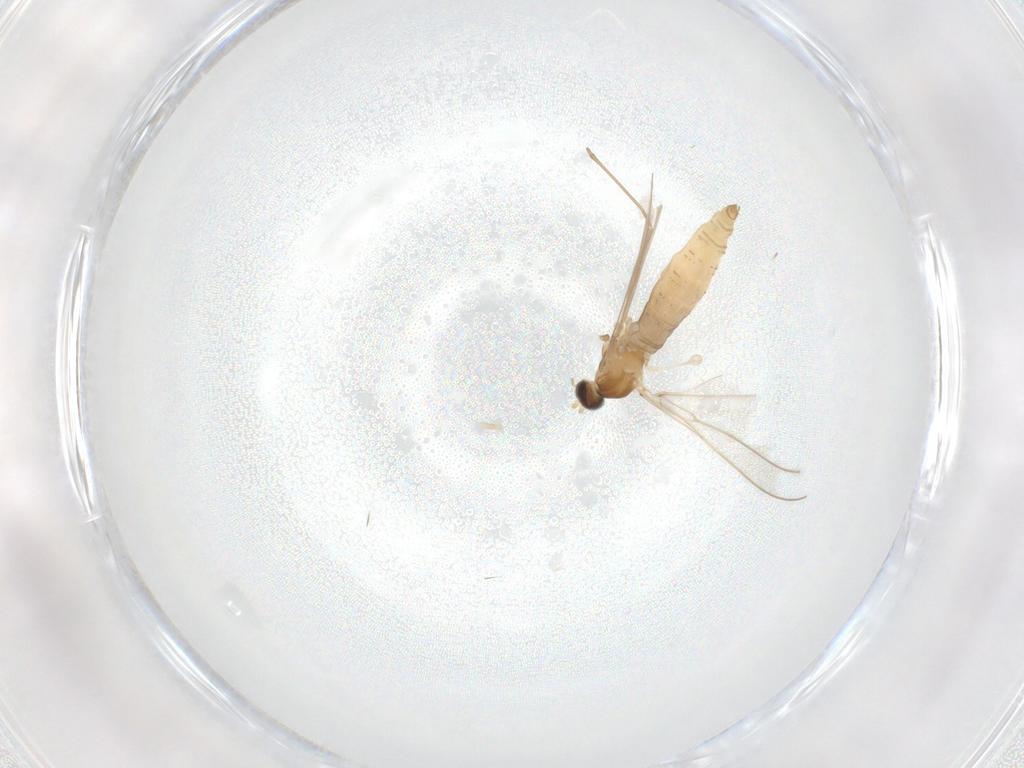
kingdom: Animalia
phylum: Arthropoda
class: Insecta
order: Diptera
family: Cecidomyiidae
